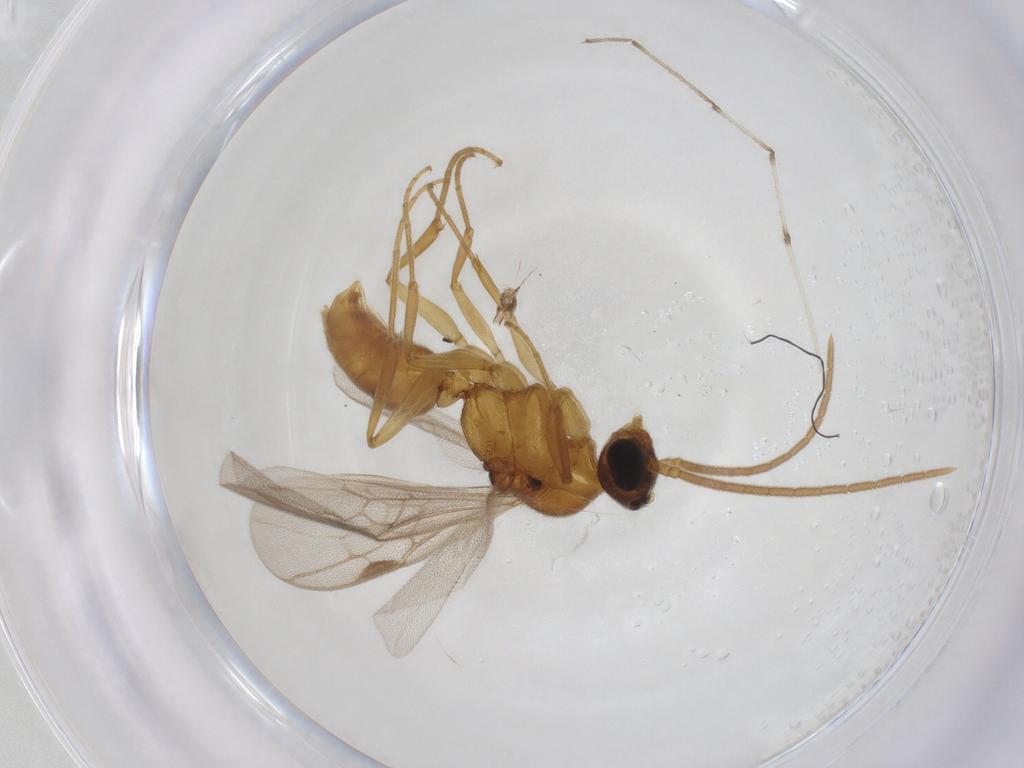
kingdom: Animalia
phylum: Arthropoda
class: Insecta
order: Hymenoptera
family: Formicidae
